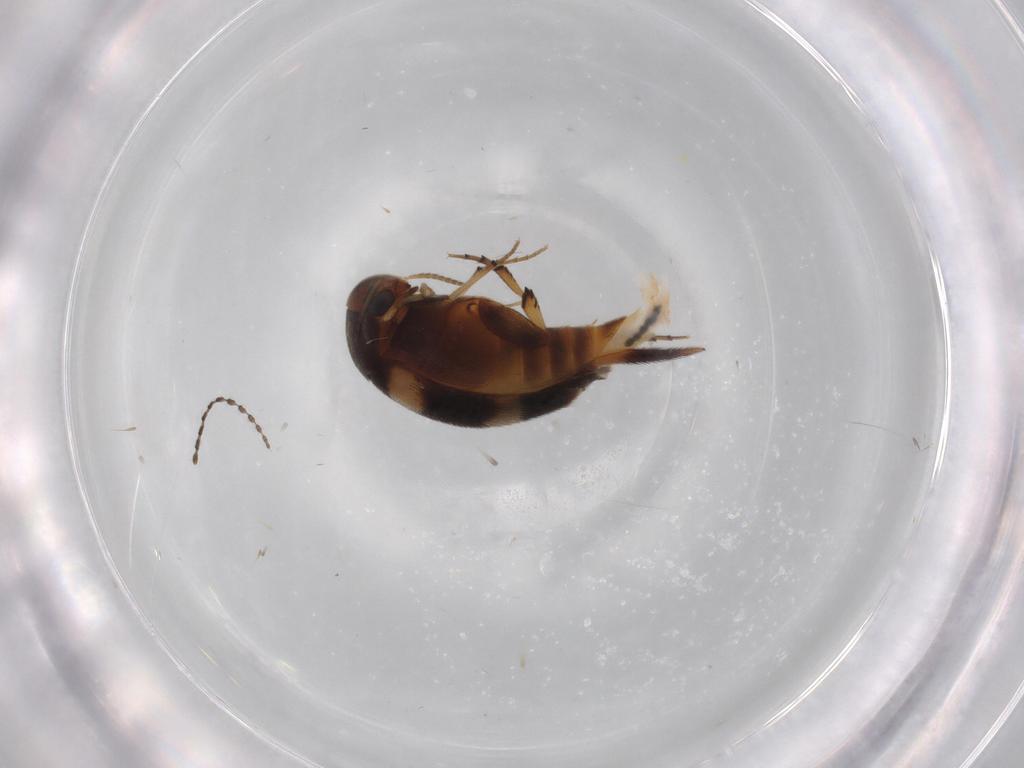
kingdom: Animalia
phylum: Arthropoda
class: Insecta
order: Coleoptera
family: Mordellidae
